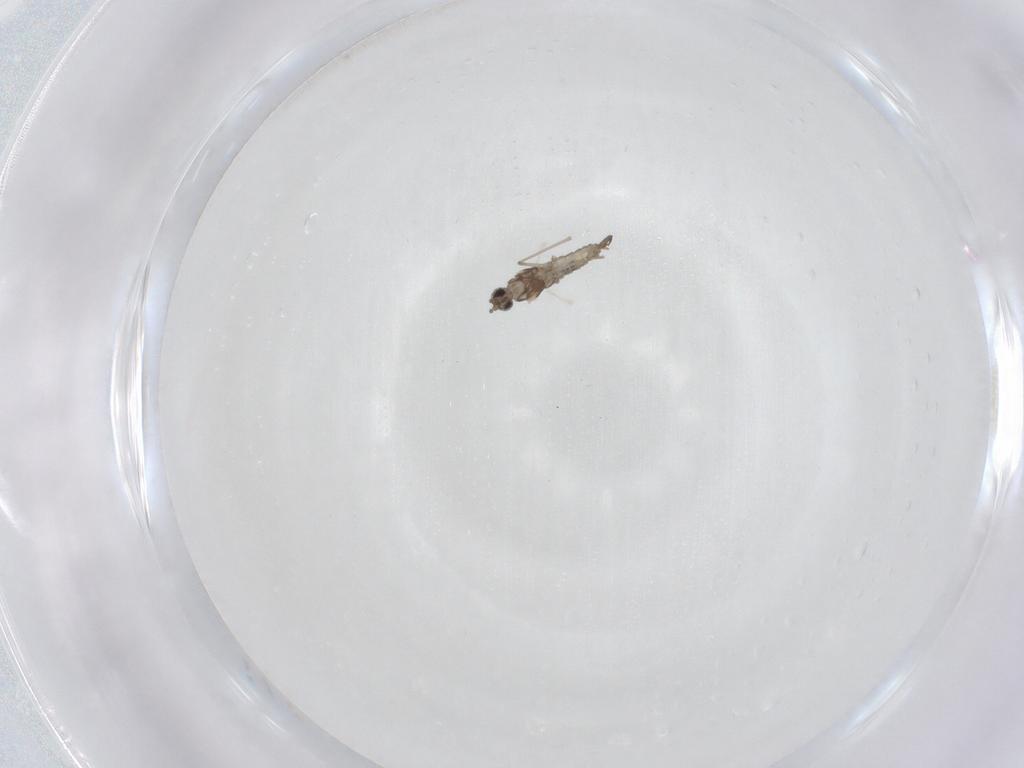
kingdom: Animalia
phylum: Arthropoda
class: Insecta
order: Diptera
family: Cecidomyiidae
